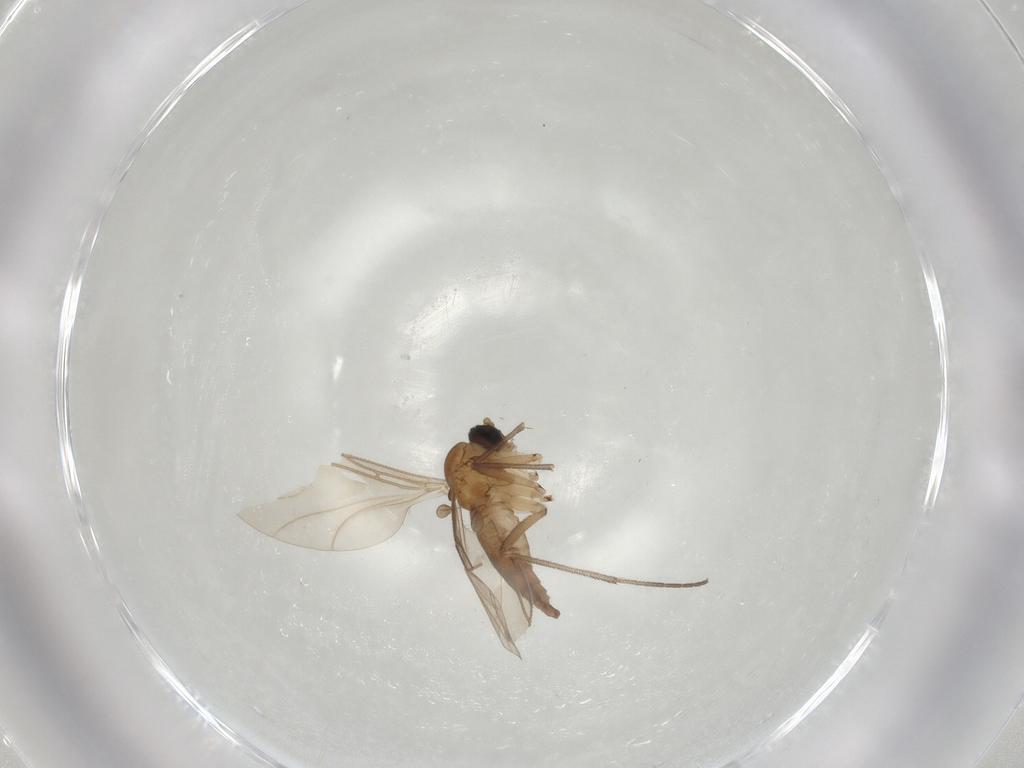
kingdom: Animalia
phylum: Arthropoda
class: Insecta
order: Diptera
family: Sciaridae
